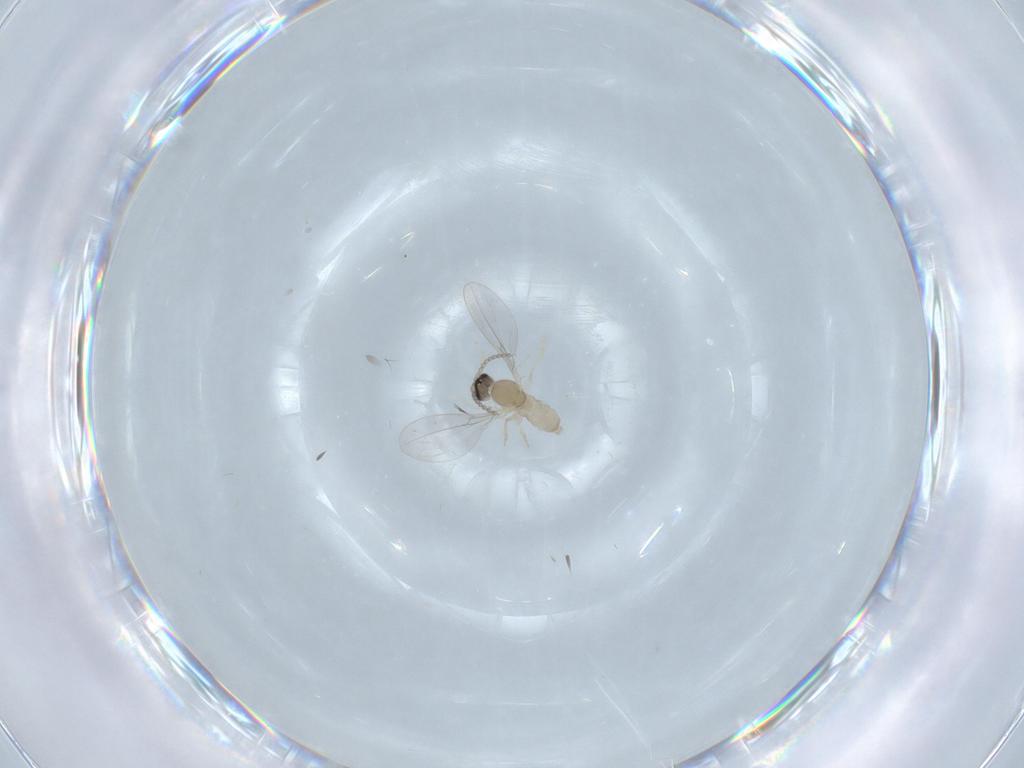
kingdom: Animalia
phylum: Arthropoda
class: Insecta
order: Diptera
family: Cecidomyiidae
